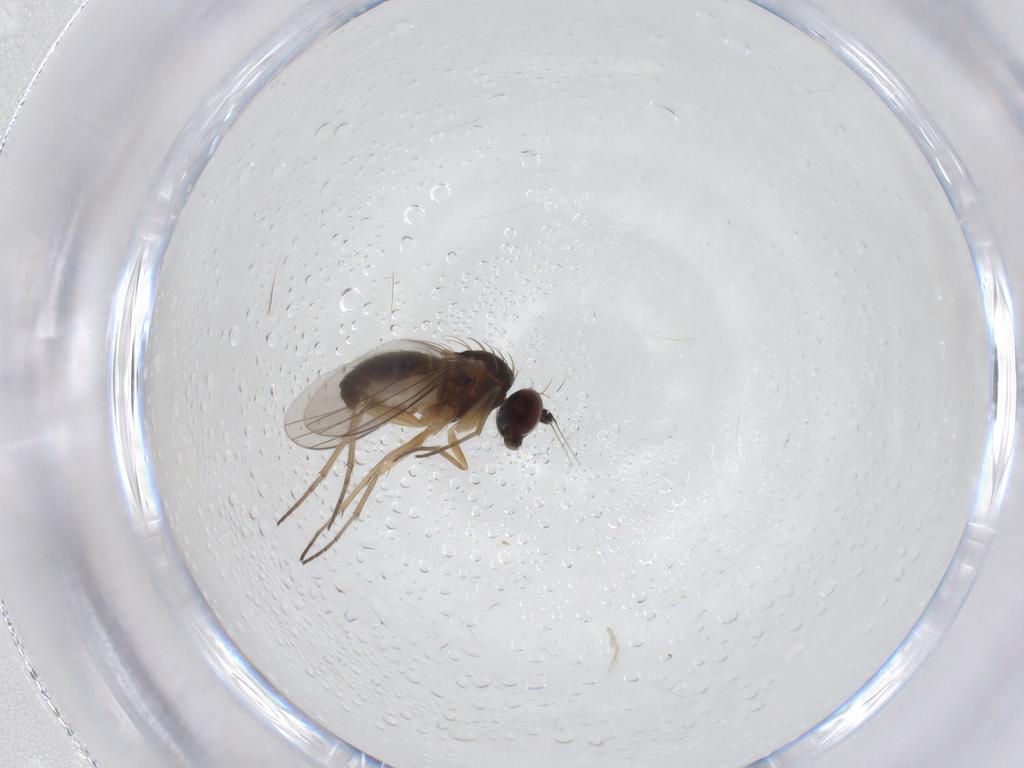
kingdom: Animalia
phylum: Arthropoda
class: Insecta
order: Diptera
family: Dolichopodidae
